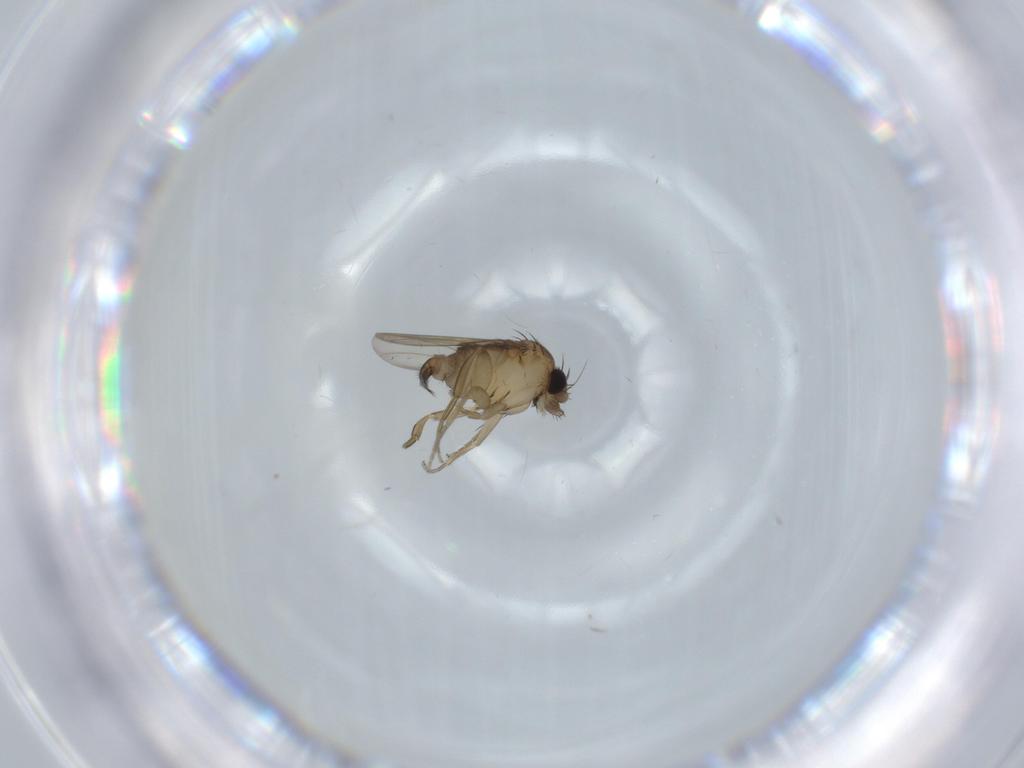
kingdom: Animalia
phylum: Arthropoda
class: Insecta
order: Diptera
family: Phoridae
